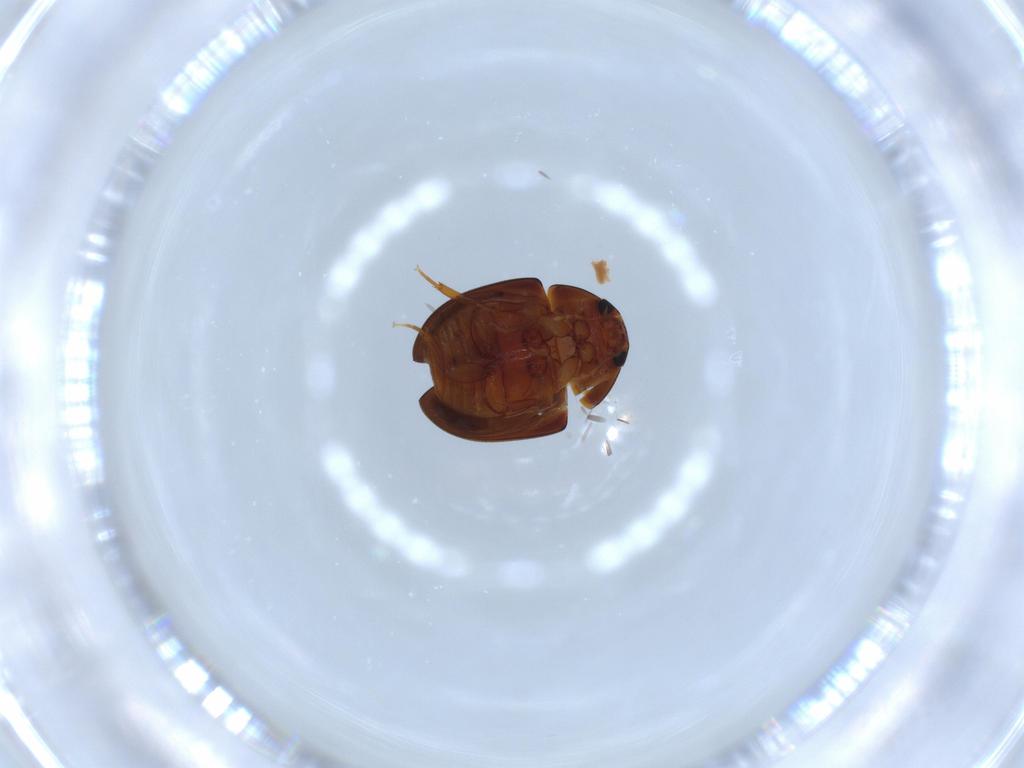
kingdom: Animalia
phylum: Arthropoda
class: Insecta
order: Coleoptera
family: Phalacridae
